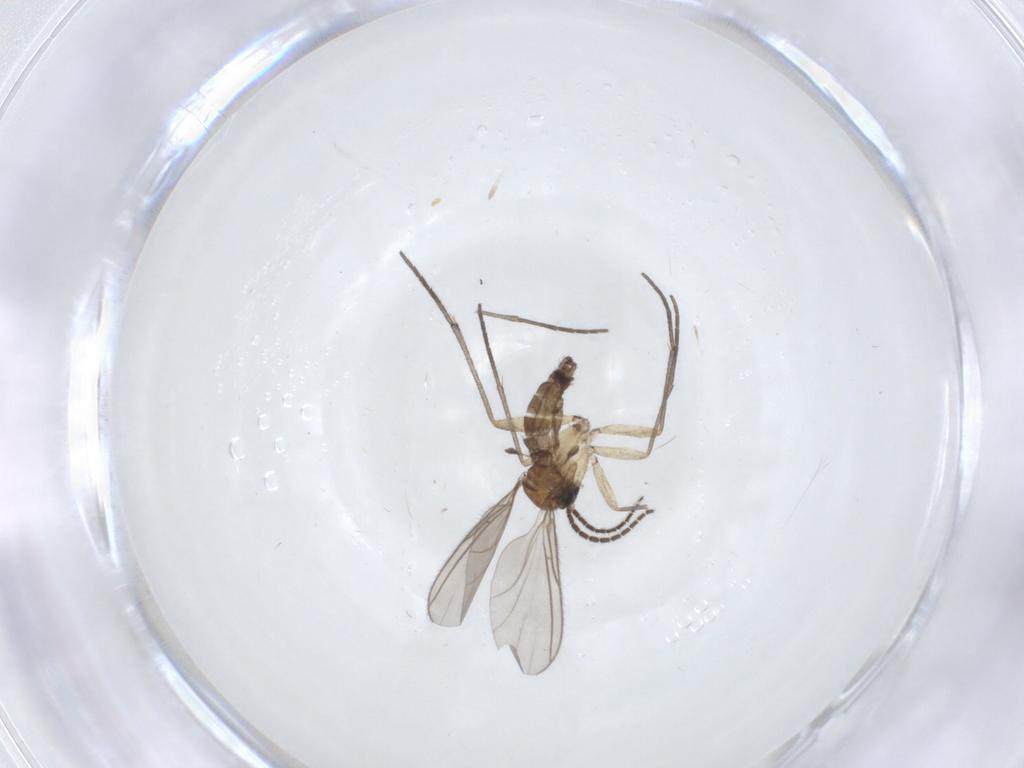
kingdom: Animalia
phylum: Arthropoda
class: Insecta
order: Diptera
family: Sciaridae
